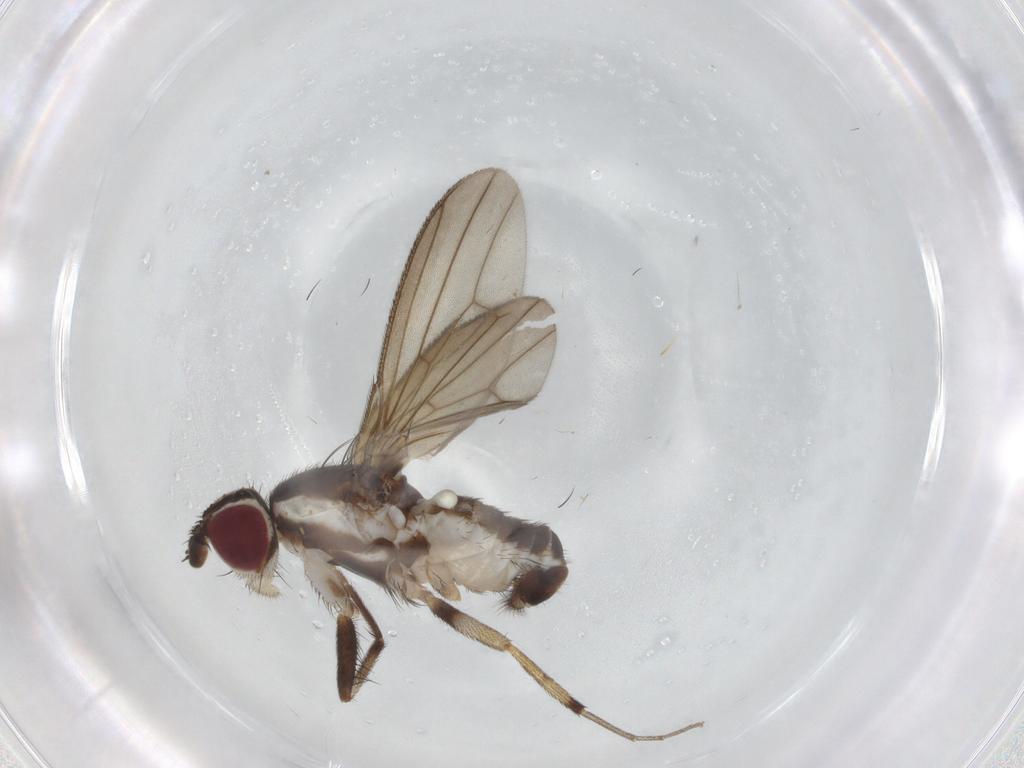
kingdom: Animalia
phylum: Arthropoda
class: Insecta
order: Diptera
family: Pseudopomyzidae
